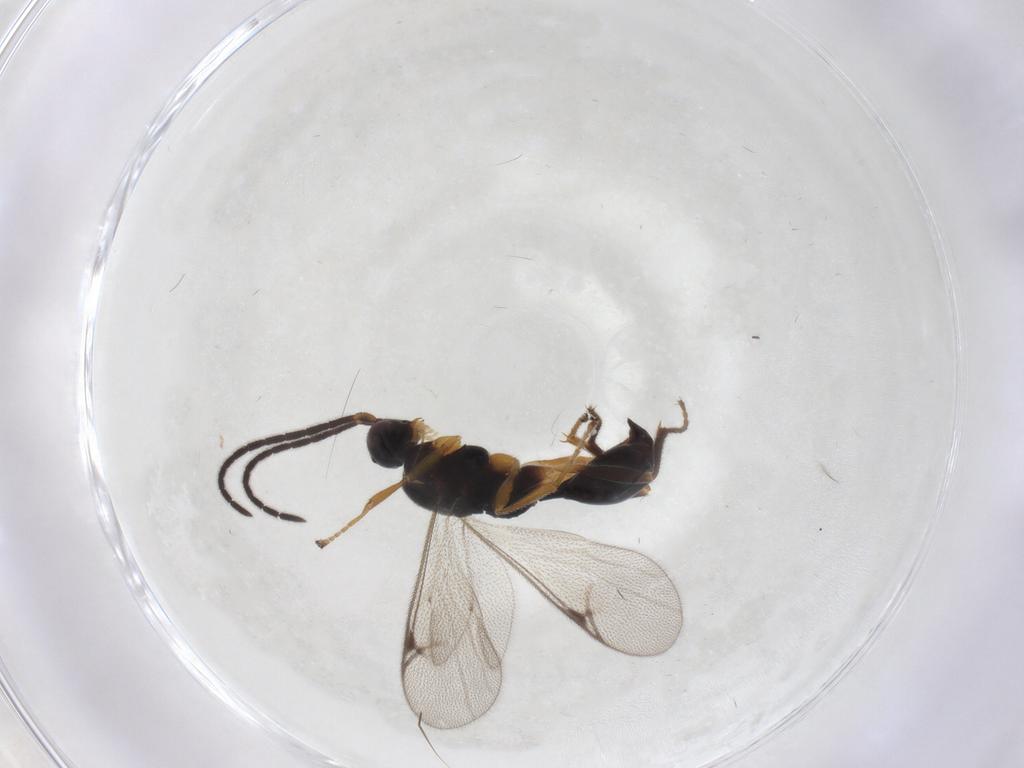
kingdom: Animalia
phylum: Arthropoda
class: Insecta
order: Hymenoptera
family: Proctotrupidae
